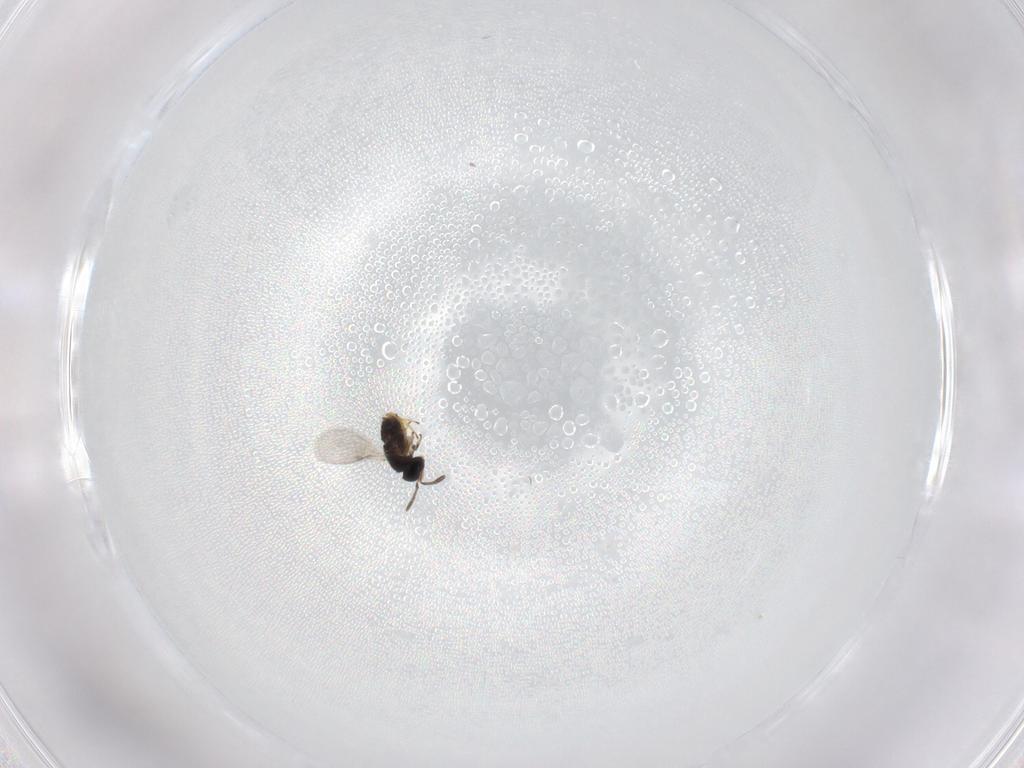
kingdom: Animalia
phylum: Arthropoda
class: Insecta
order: Hymenoptera
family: Encyrtidae
